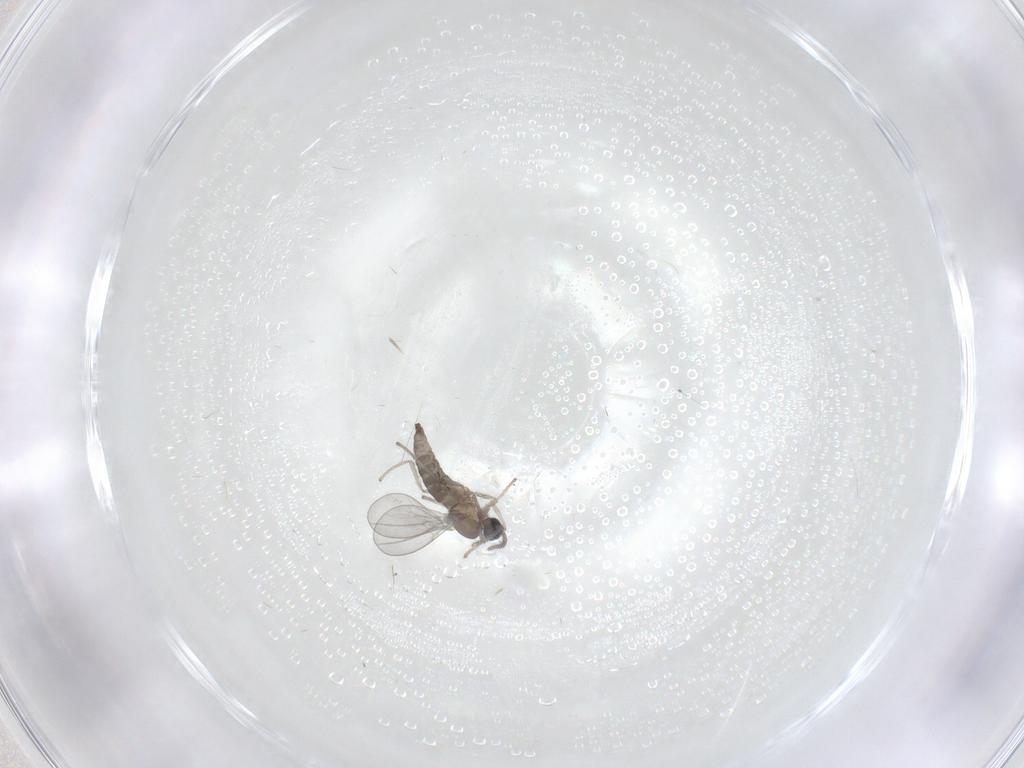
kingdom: Animalia
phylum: Arthropoda
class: Insecta
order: Diptera
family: Cecidomyiidae
